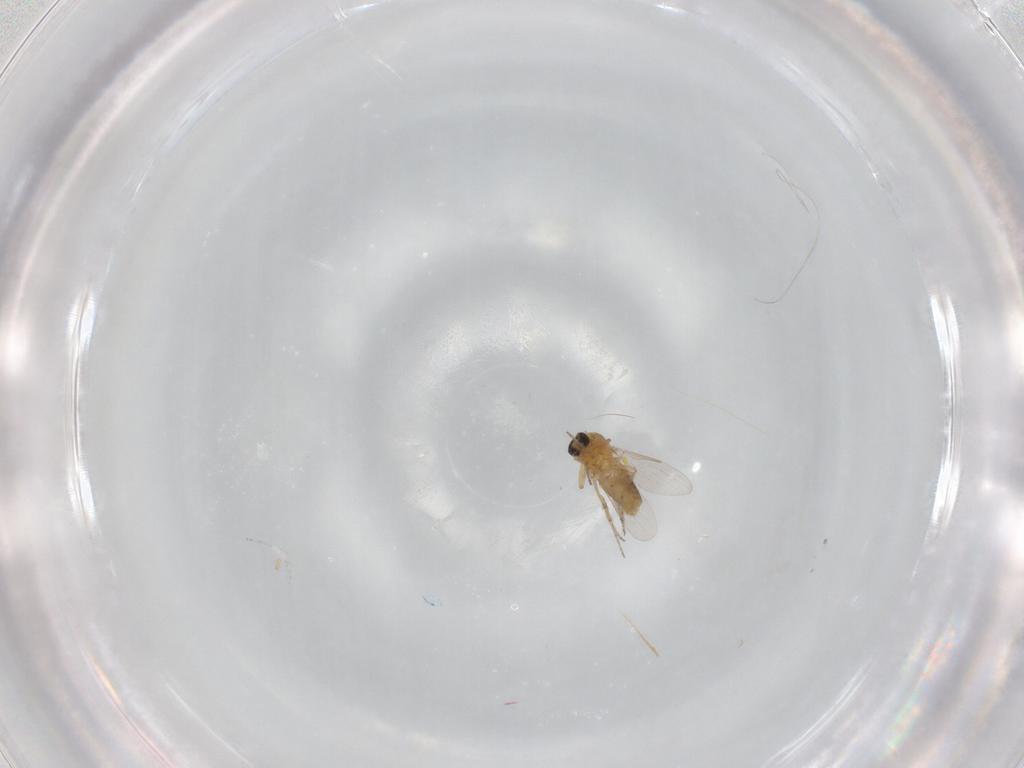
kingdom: Animalia
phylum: Arthropoda
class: Insecta
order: Diptera
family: Ceratopogonidae
